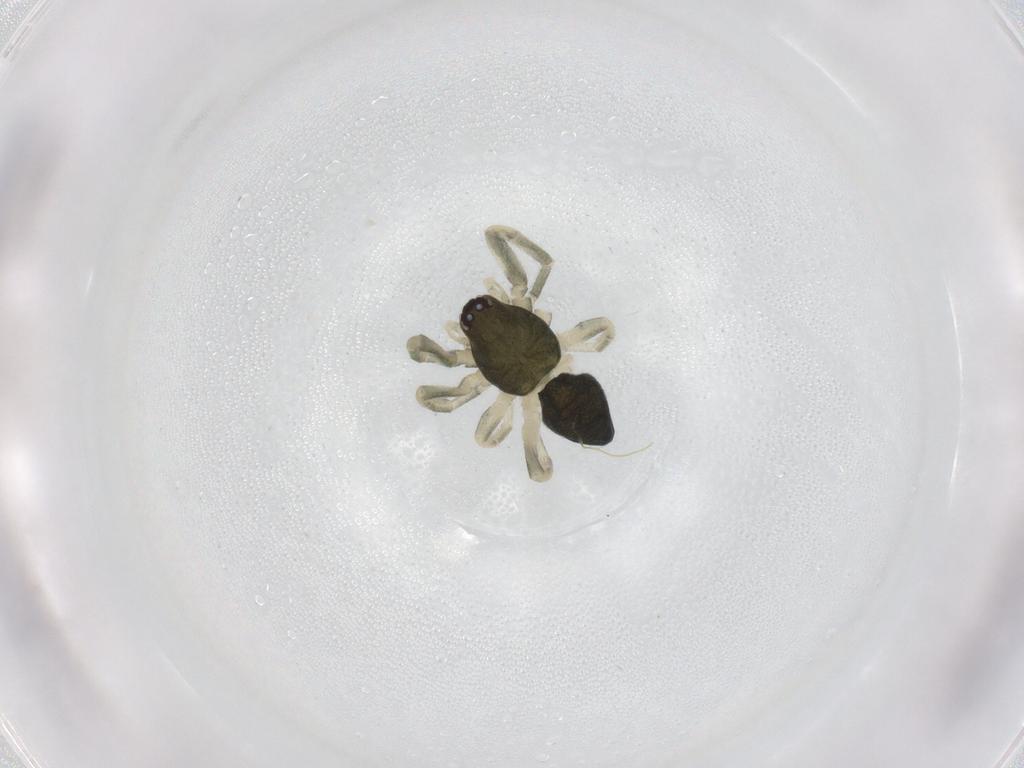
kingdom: Animalia
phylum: Arthropoda
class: Arachnida
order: Araneae
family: Trachelidae
